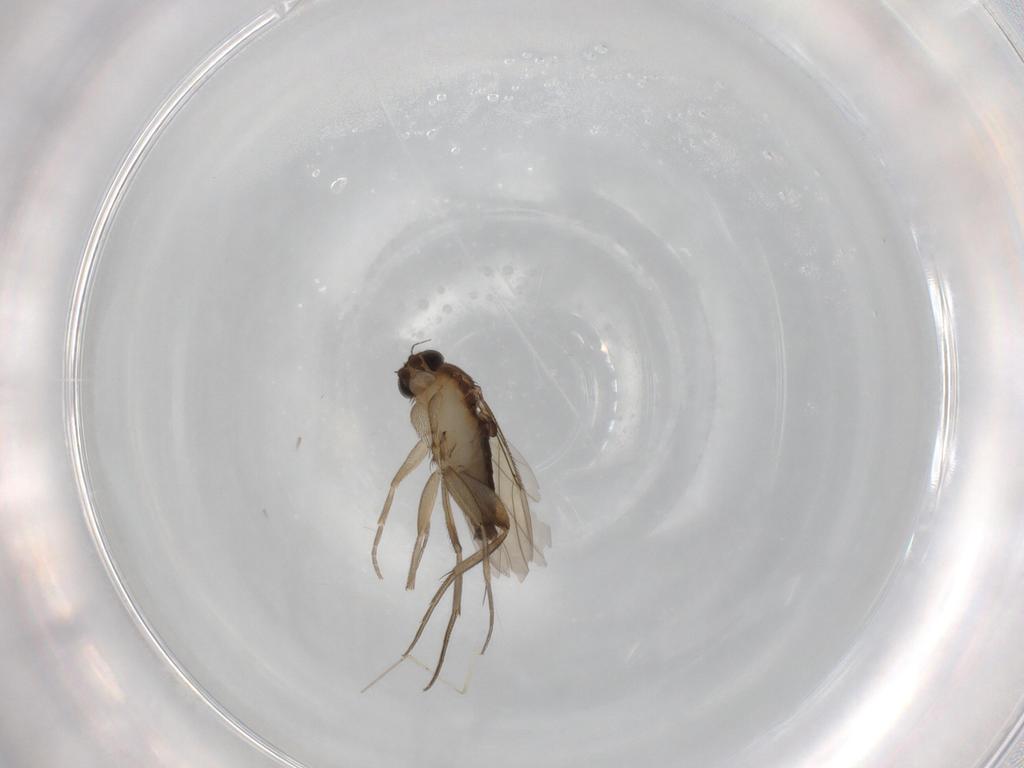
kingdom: Animalia
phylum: Arthropoda
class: Insecta
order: Diptera
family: Phoridae
